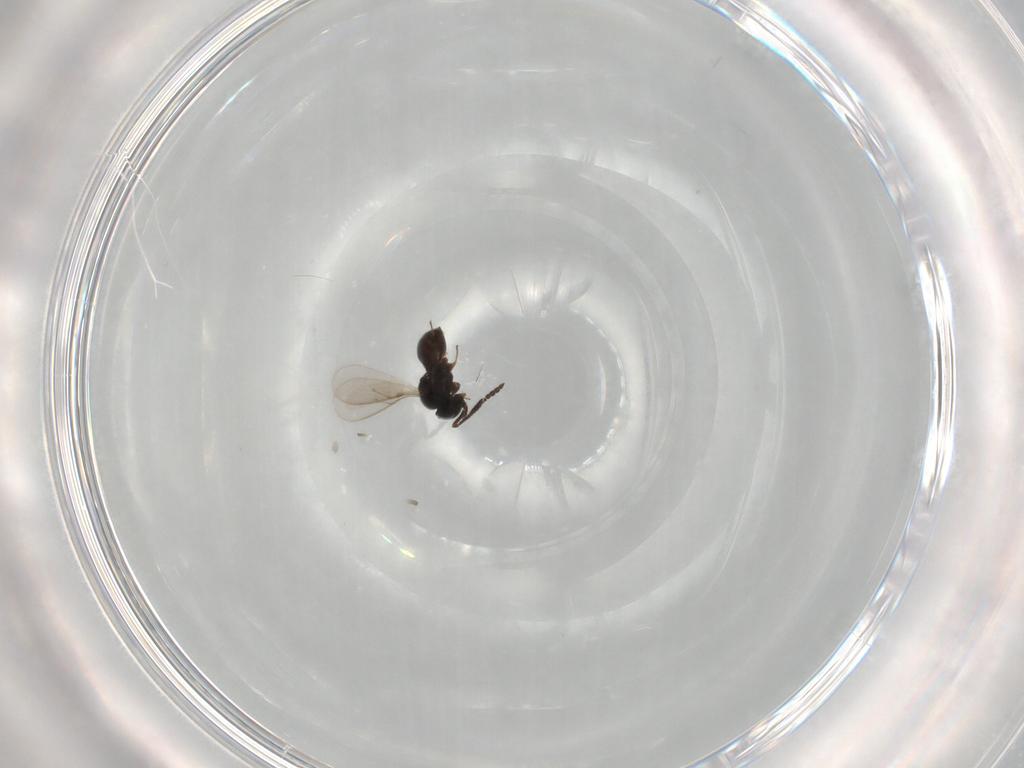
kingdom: Animalia
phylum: Arthropoda
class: Insecta
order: Hymenoptera
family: Scelionidae
